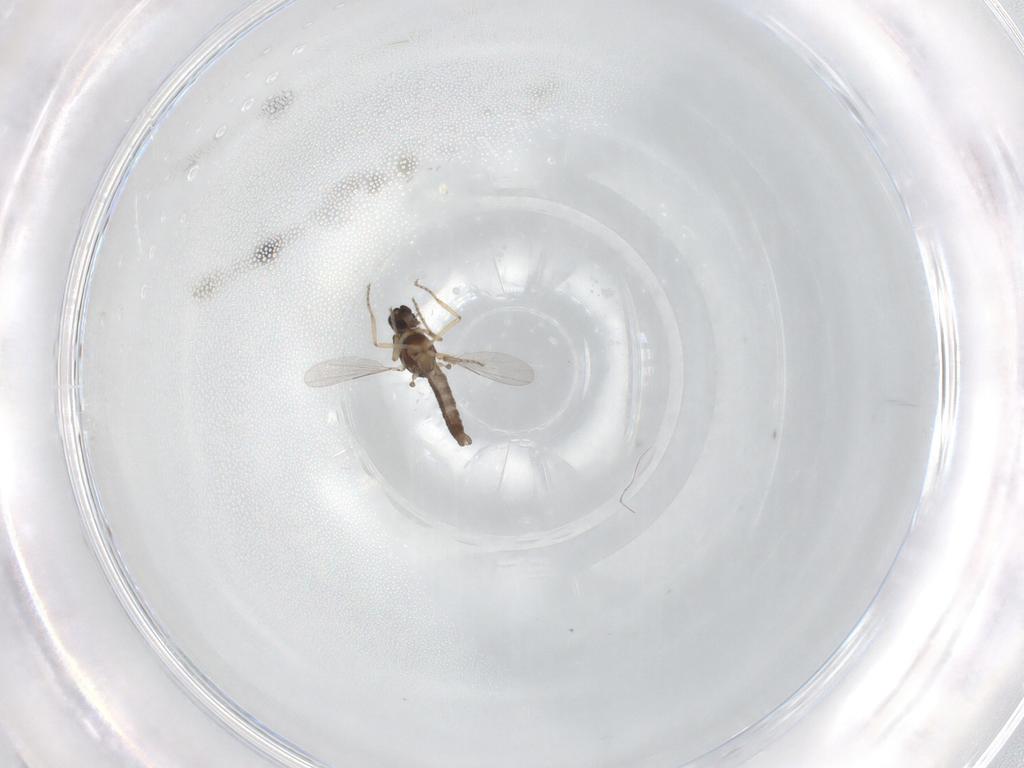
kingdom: Animalia
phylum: Arthropoda
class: Insecta
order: Diptera
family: Ceratopogonidae
